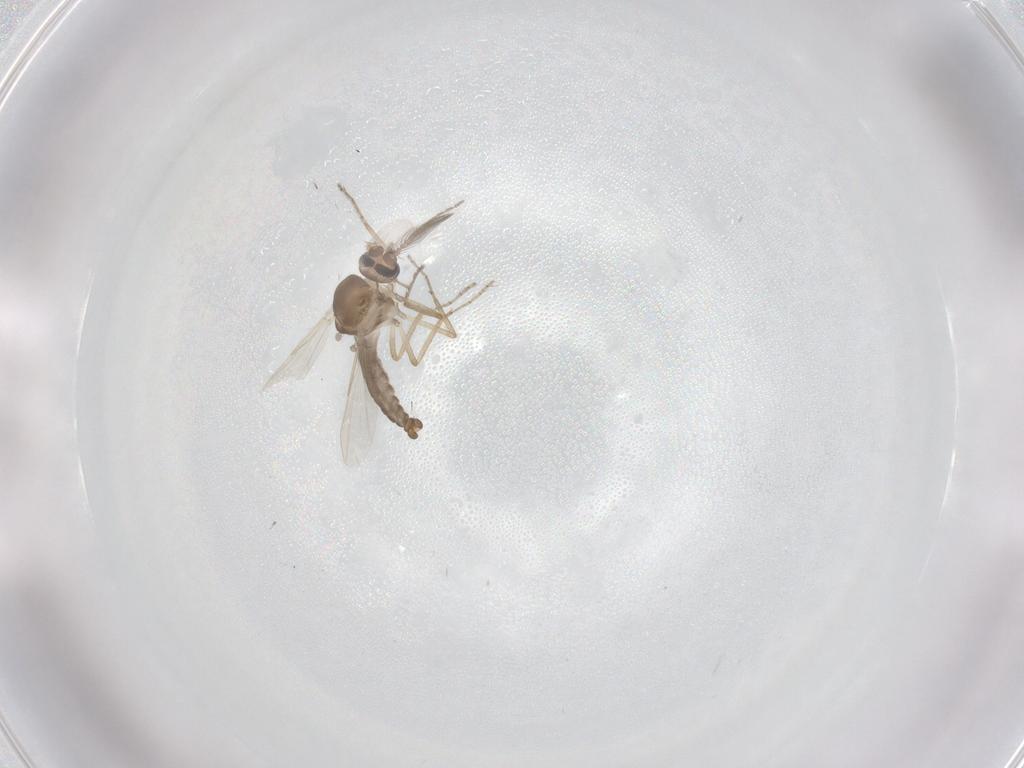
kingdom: Animalia
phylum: Arthropoda
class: Insecta
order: Diptera
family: Ceratopogonidae
